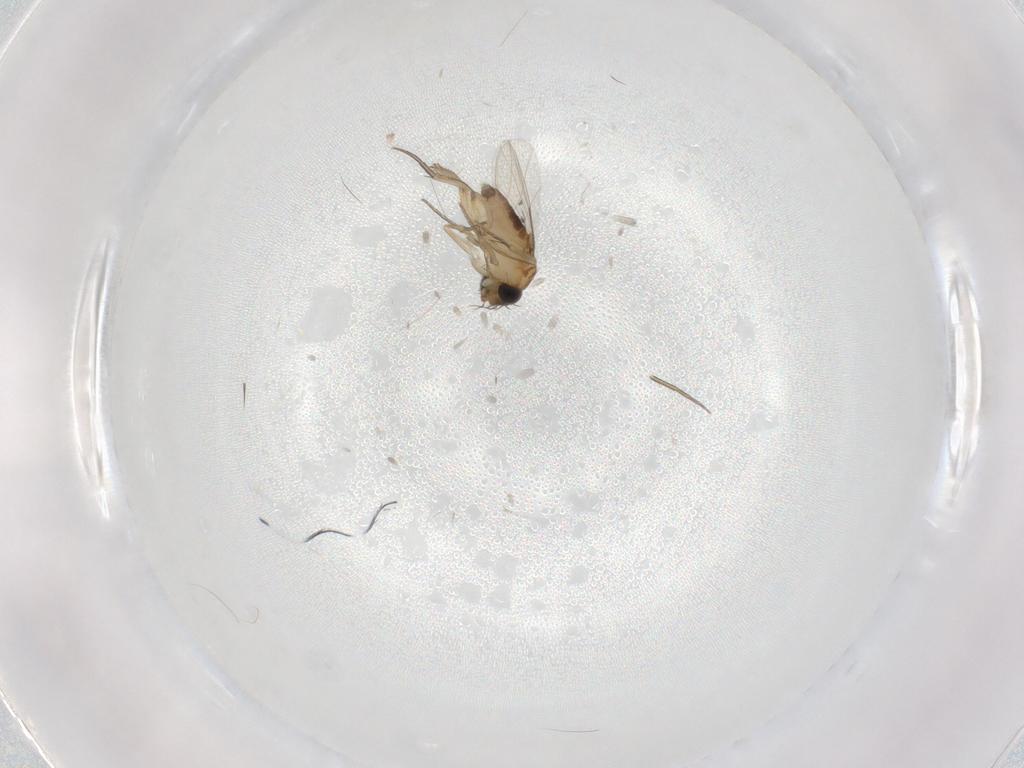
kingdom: Animalia
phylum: Arthropoda
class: Insecta
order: Diptera
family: Phoridae
